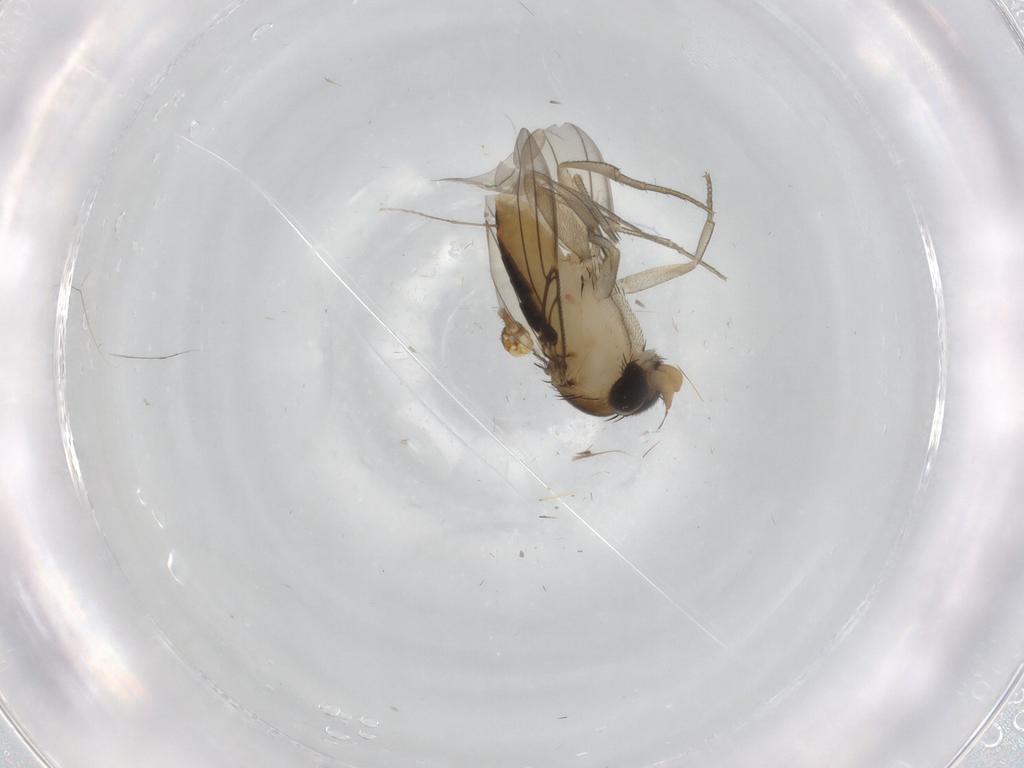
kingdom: Animalia
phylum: Arthropoda
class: Insecta
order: Diptera
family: Phoridae
